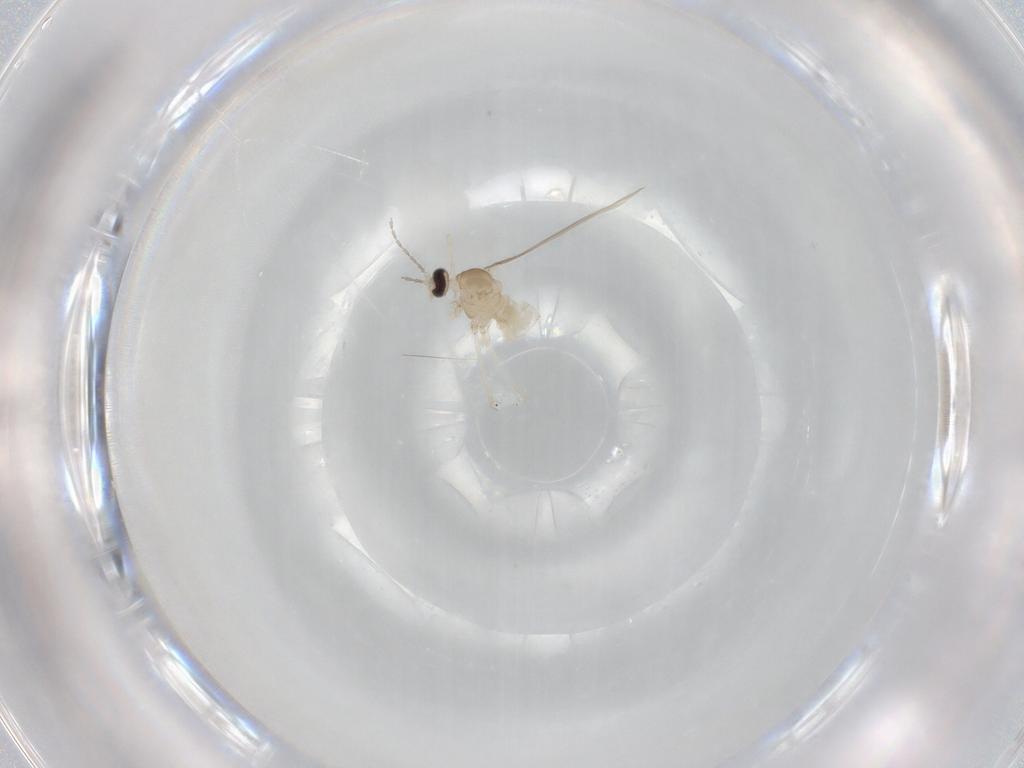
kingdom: Animalia
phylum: Arthropoda
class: Insecta
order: Diptera
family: Cecidomyiidae
